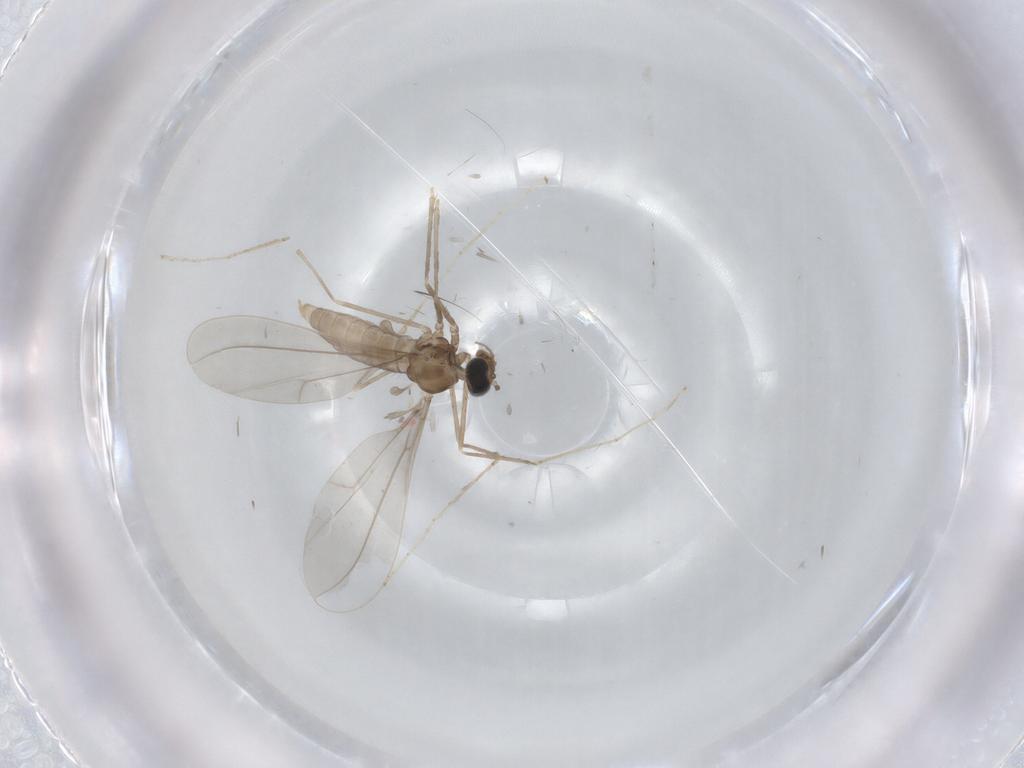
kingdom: Animalia
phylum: Arthropoda
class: Insecta
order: Diptera
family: Cecidomyiidae
